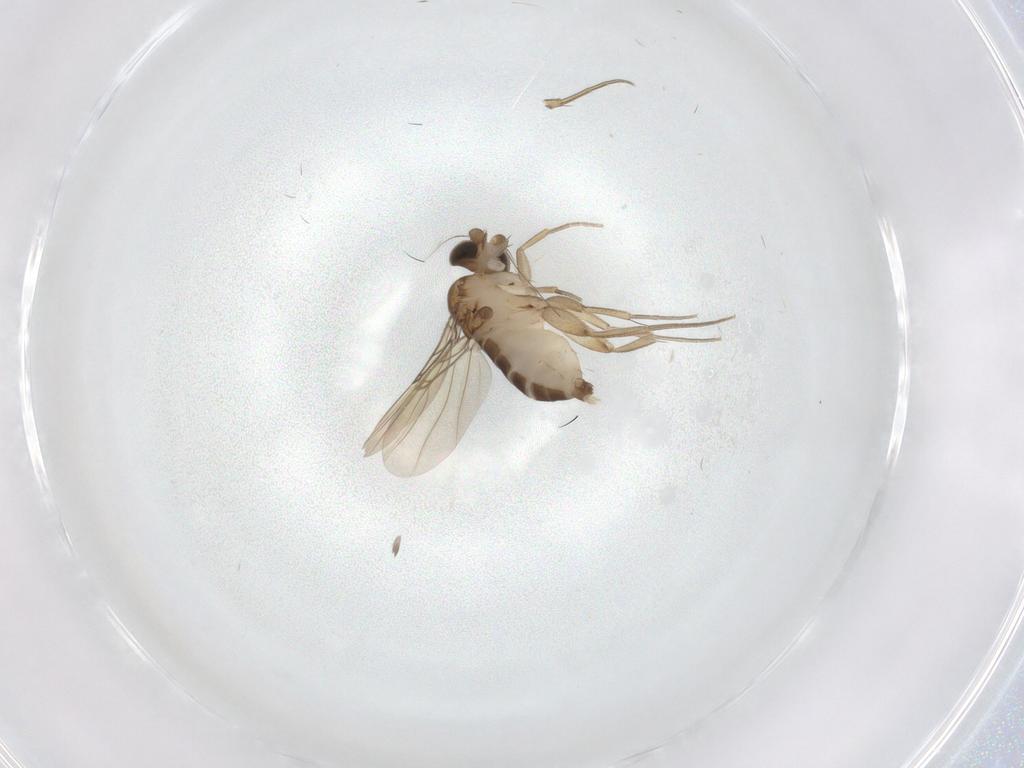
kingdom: Animalia
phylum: Arthropoda
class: Insecta
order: Diptera
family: Phoridae
